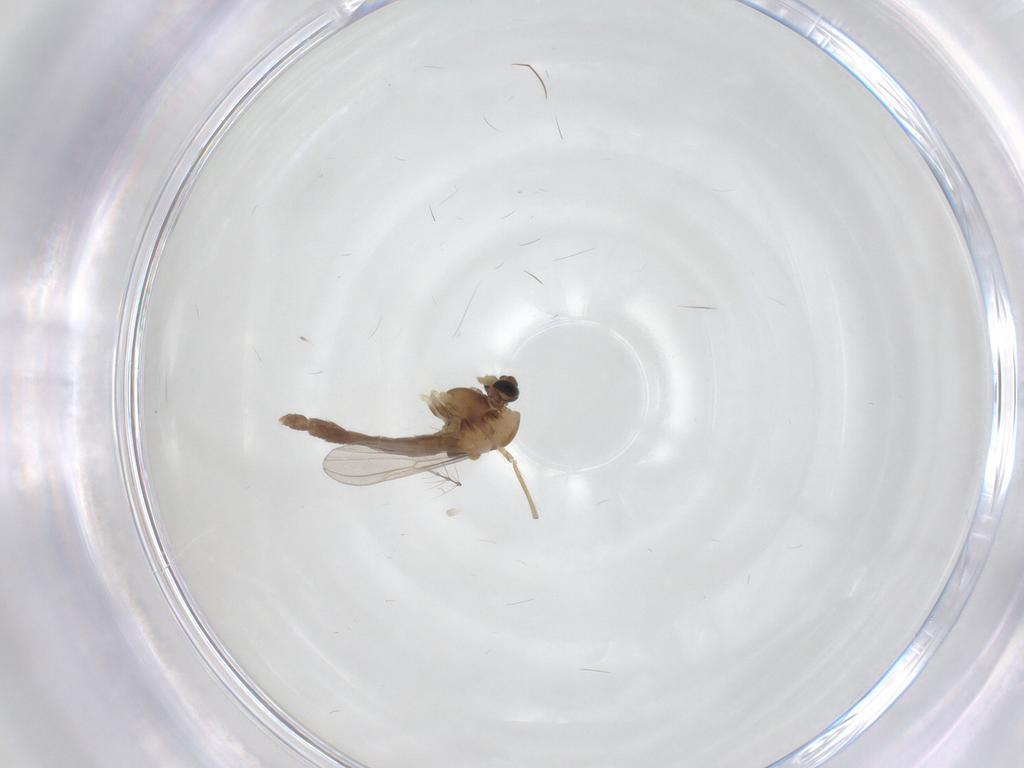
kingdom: Animalia
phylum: Arthropoda
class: Insecta
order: Diptera
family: Chironomidae
